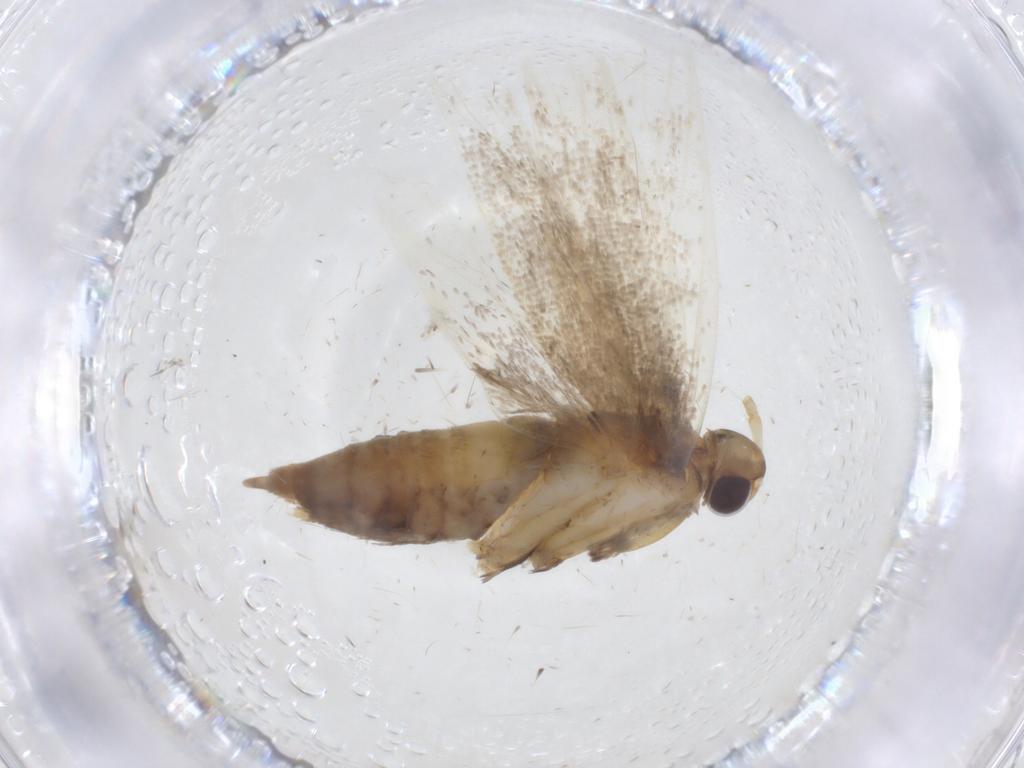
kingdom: Animalia
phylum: Arthropoda
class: Insecta
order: Lepidoptera
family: Lecithoceridae
